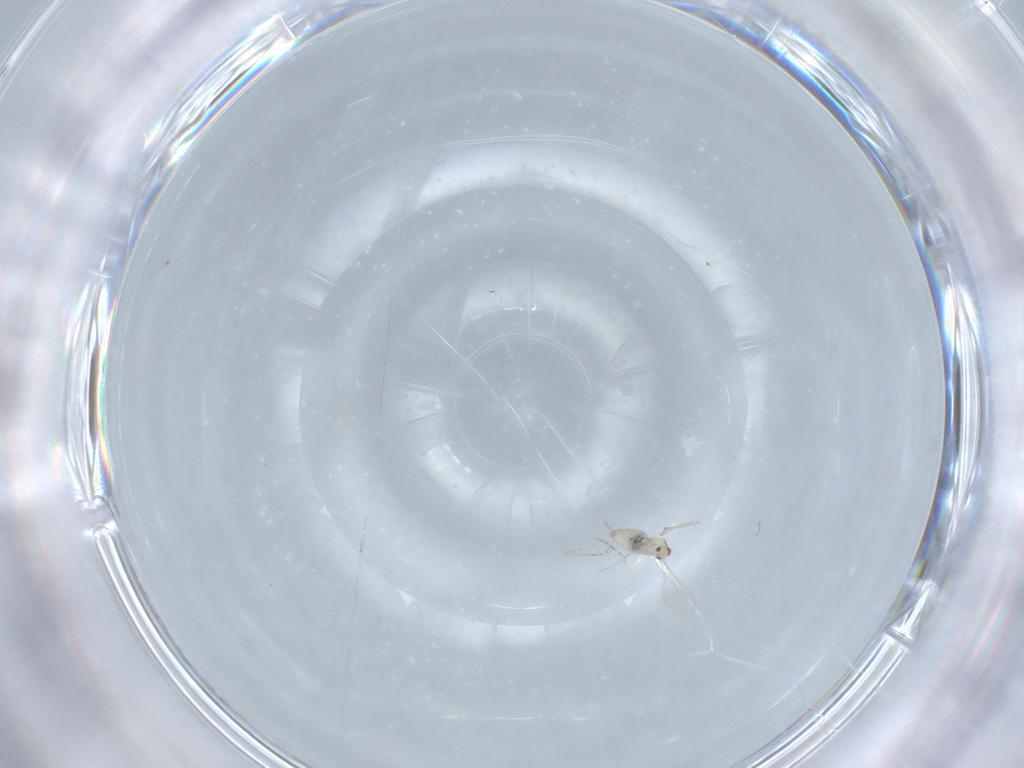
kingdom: Animalia
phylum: Arthropoda
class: Insecta
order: Diptera
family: Cecidomyiidae
